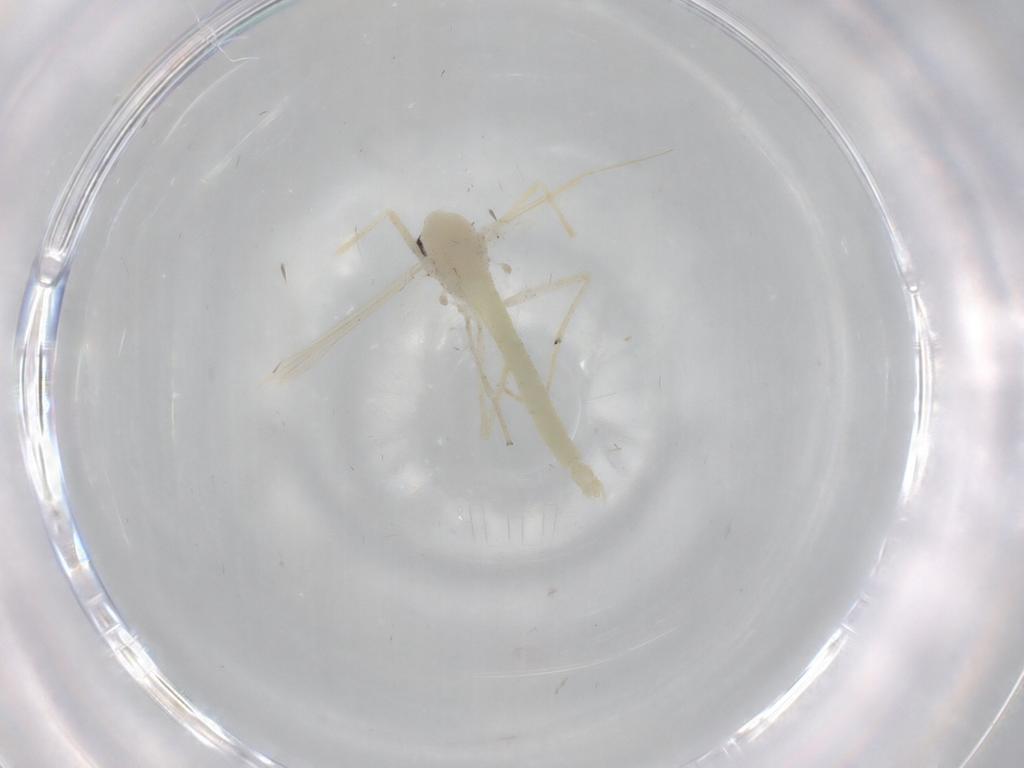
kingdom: Animalia
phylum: Arthropoda
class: Insecta
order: Diptera
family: Chironomidae
